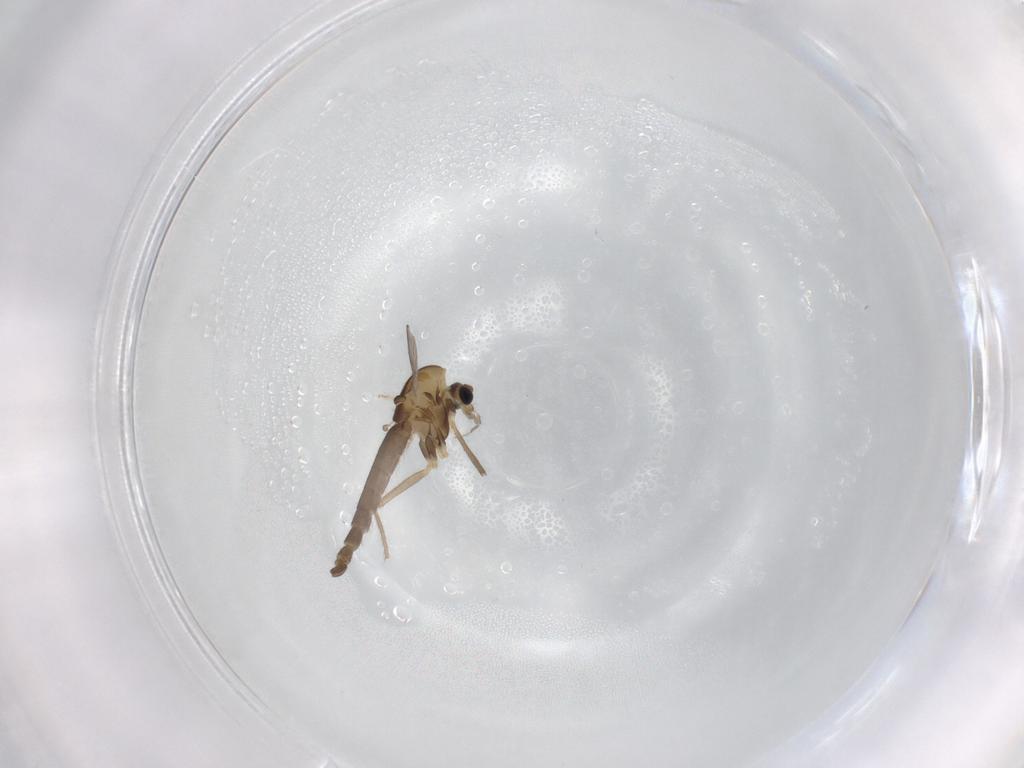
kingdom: Animalia
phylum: Arthropoda
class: Insecta
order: Diptera
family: Chironomidae
